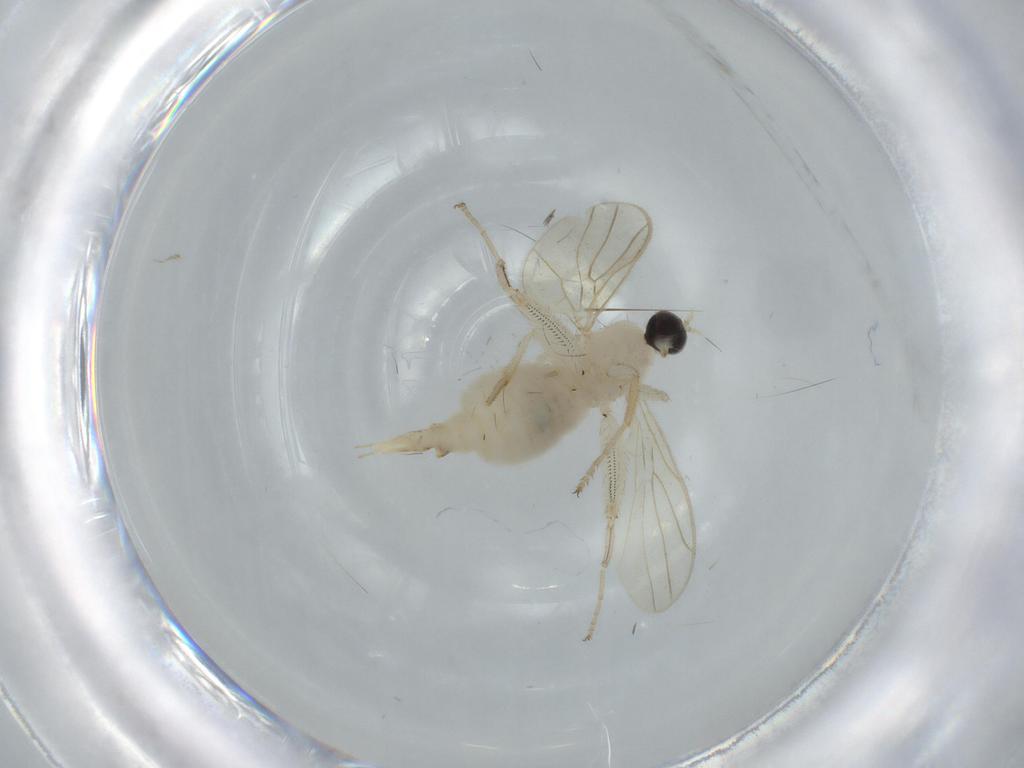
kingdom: Animalia
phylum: Arthropoda
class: Insecta
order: Diptera
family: Hybotidae
